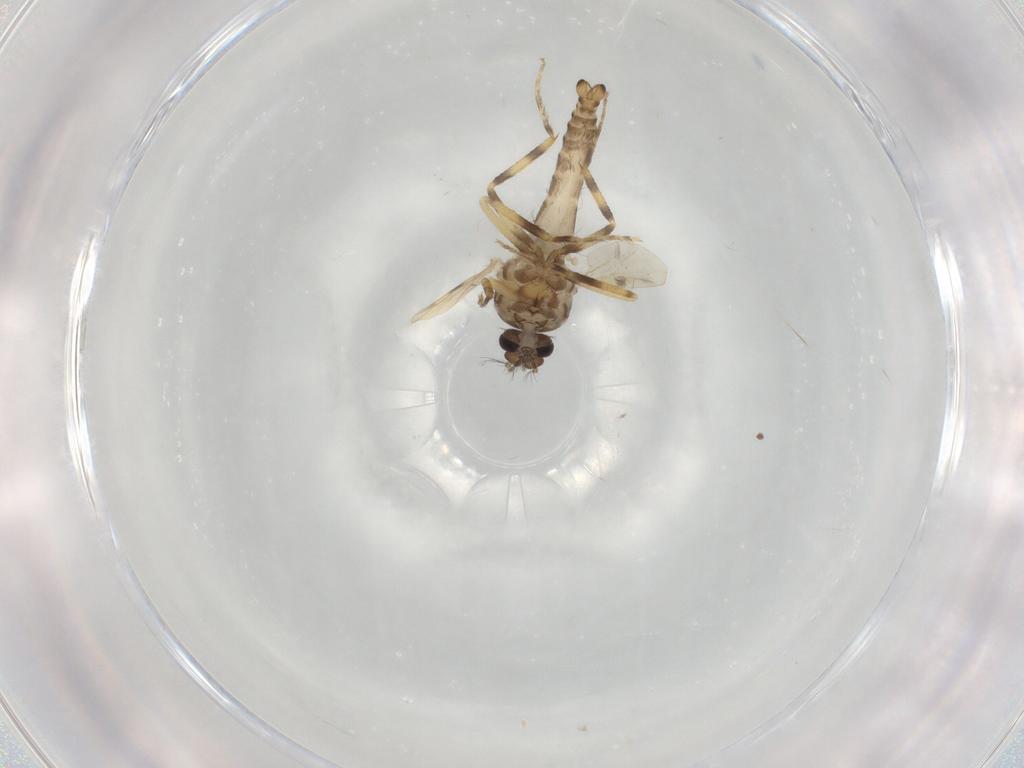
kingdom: Animalia
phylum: Arthropoda
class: Insecta
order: Diptera
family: Ceratopogonidae
